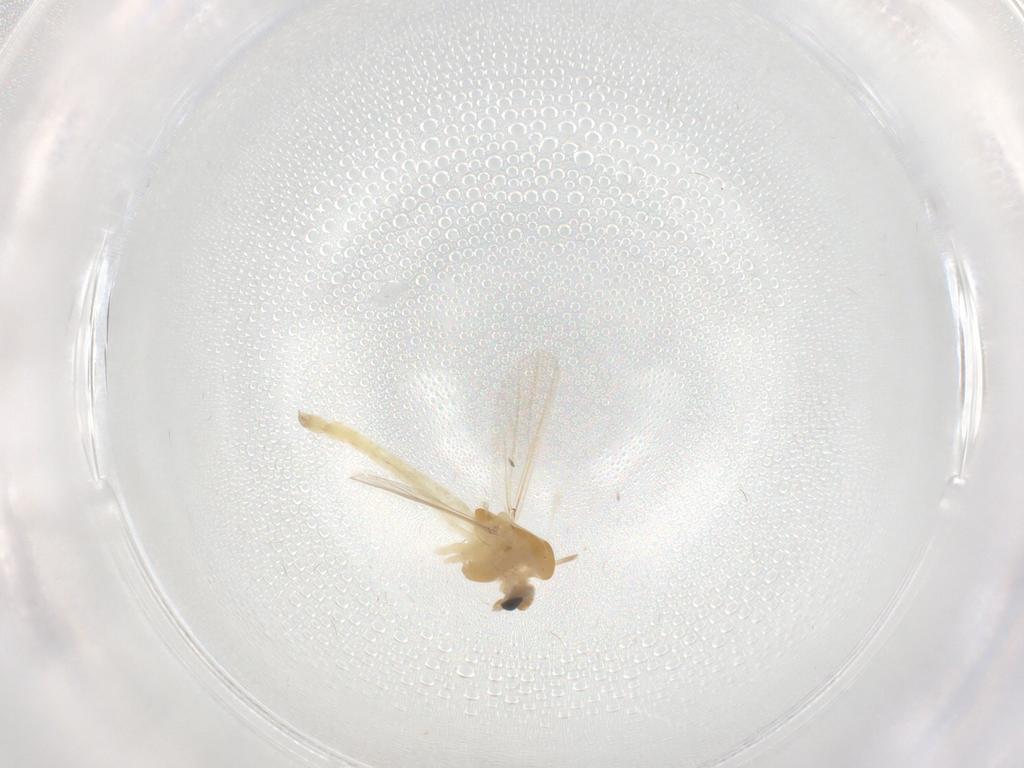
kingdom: Animalia
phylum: Arthropoda
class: Insecta
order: Diptera
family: Chironomidae
